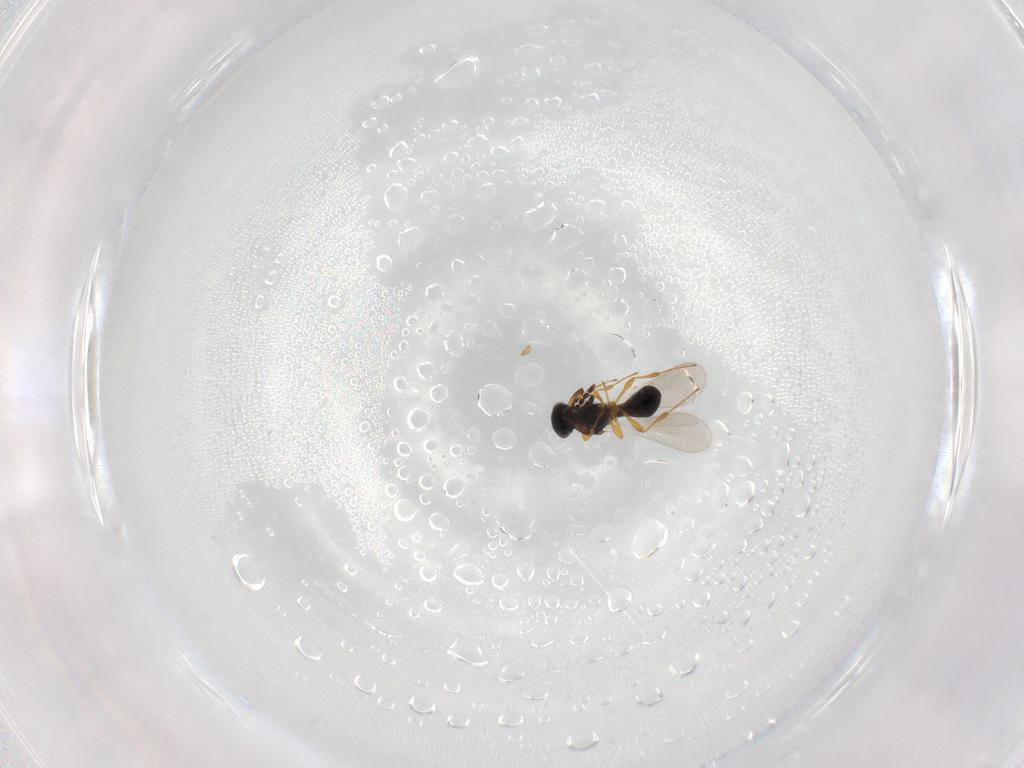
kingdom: Animalia
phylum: Arthropoda
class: Insecta
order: Hymenoptera
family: Platygastridae
